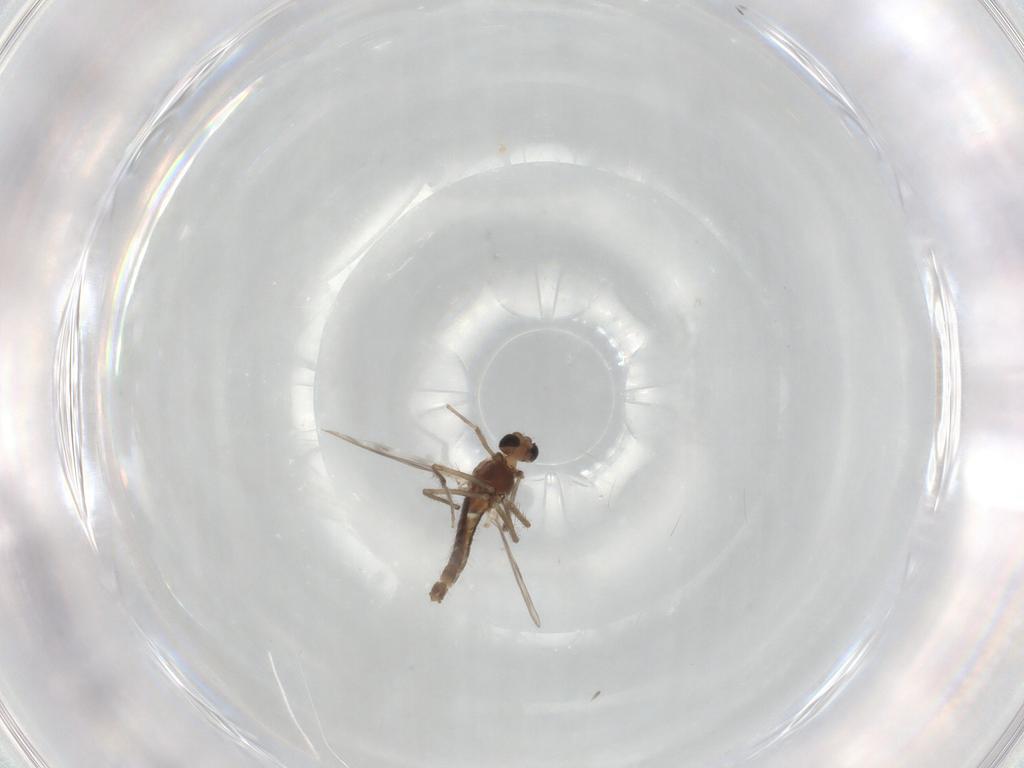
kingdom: Animalia
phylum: Arthropoda
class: Insecta
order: Diptera
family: Chironomidae
